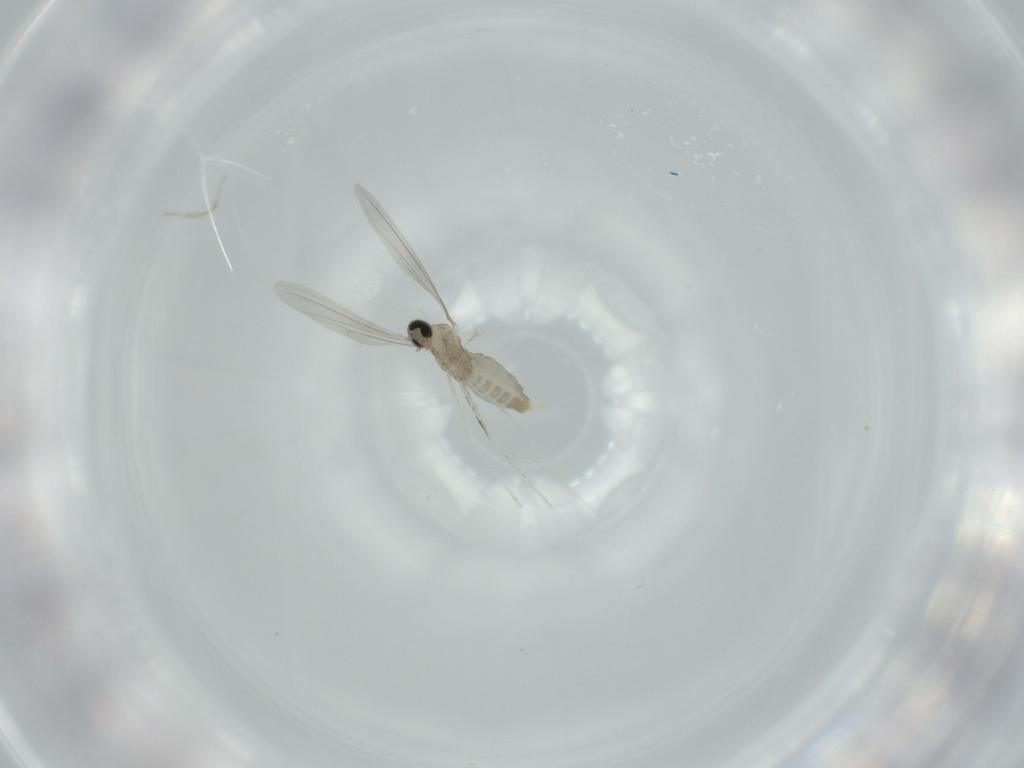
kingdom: Animalia
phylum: Arthropoda
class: Insecta
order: Diptera
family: Cecidomyiidae
